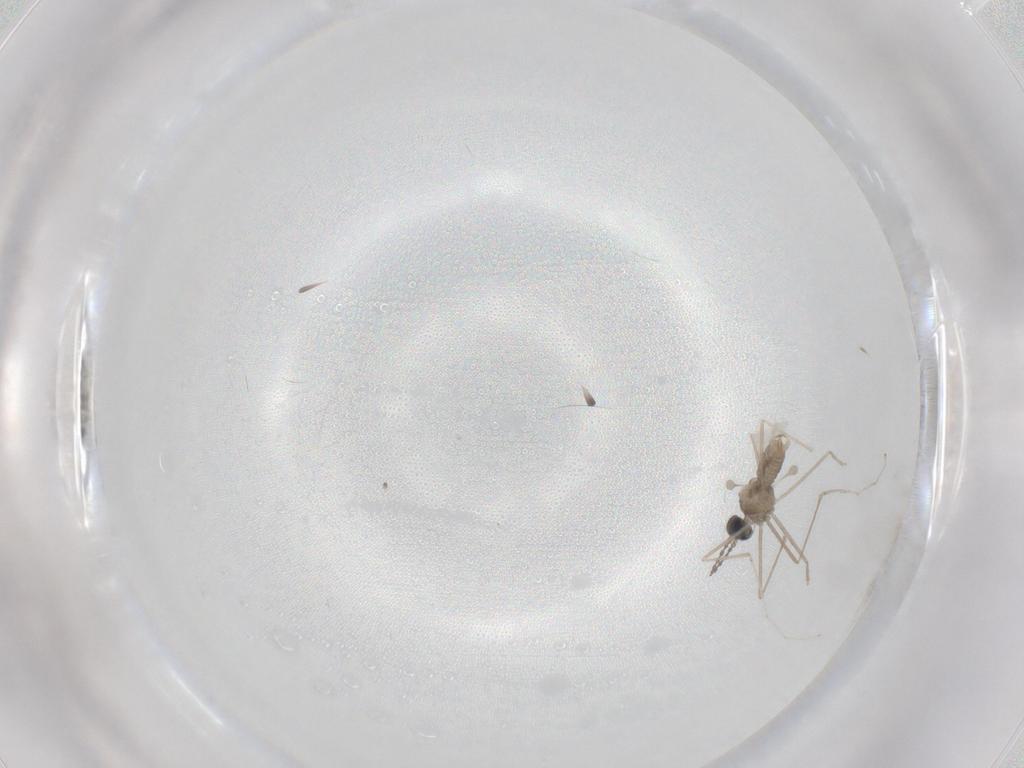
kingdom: Animalia
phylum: Arthropoda
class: Insecta
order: Diptera
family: Cecidomyiidae
